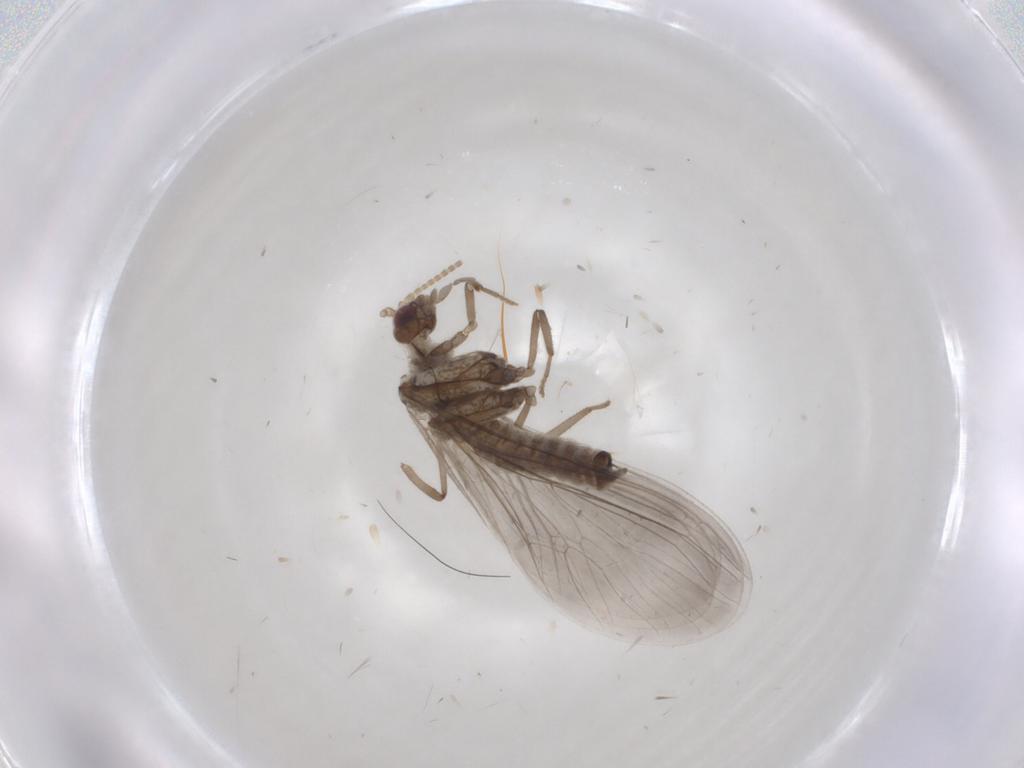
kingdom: Animalia
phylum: Arthropoda
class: Insecta
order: Neuroptera
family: Coniopterygidae
